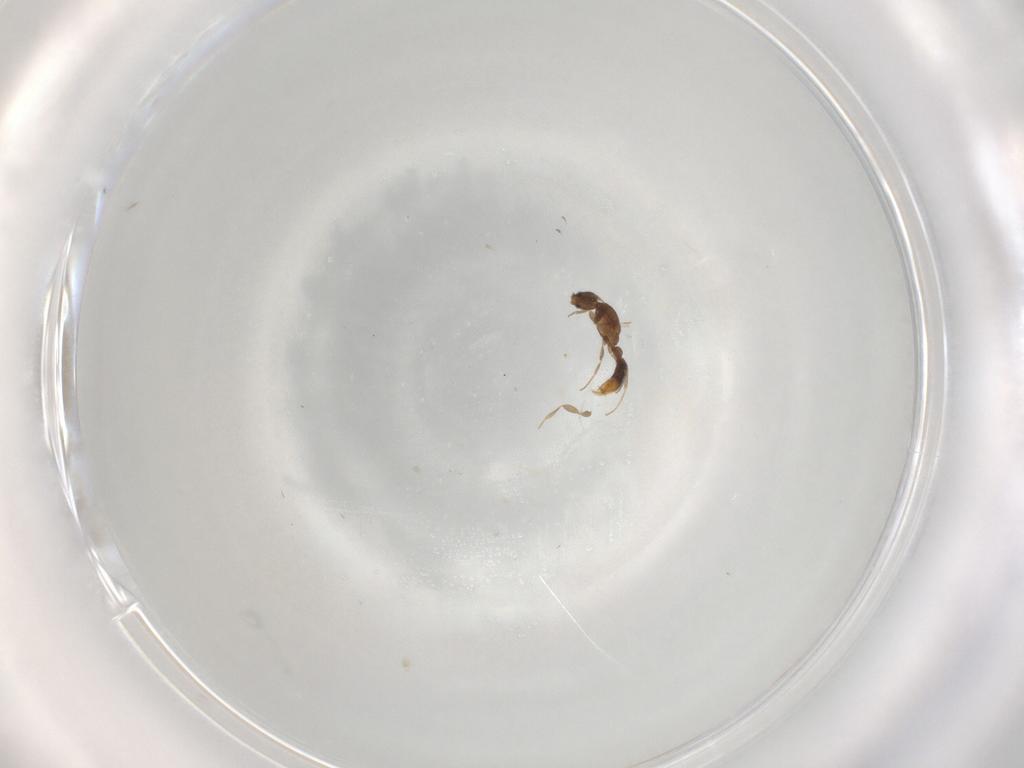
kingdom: Animalia
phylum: Arthropoda
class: Insecta
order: Hymenoptera
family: Formicidae
